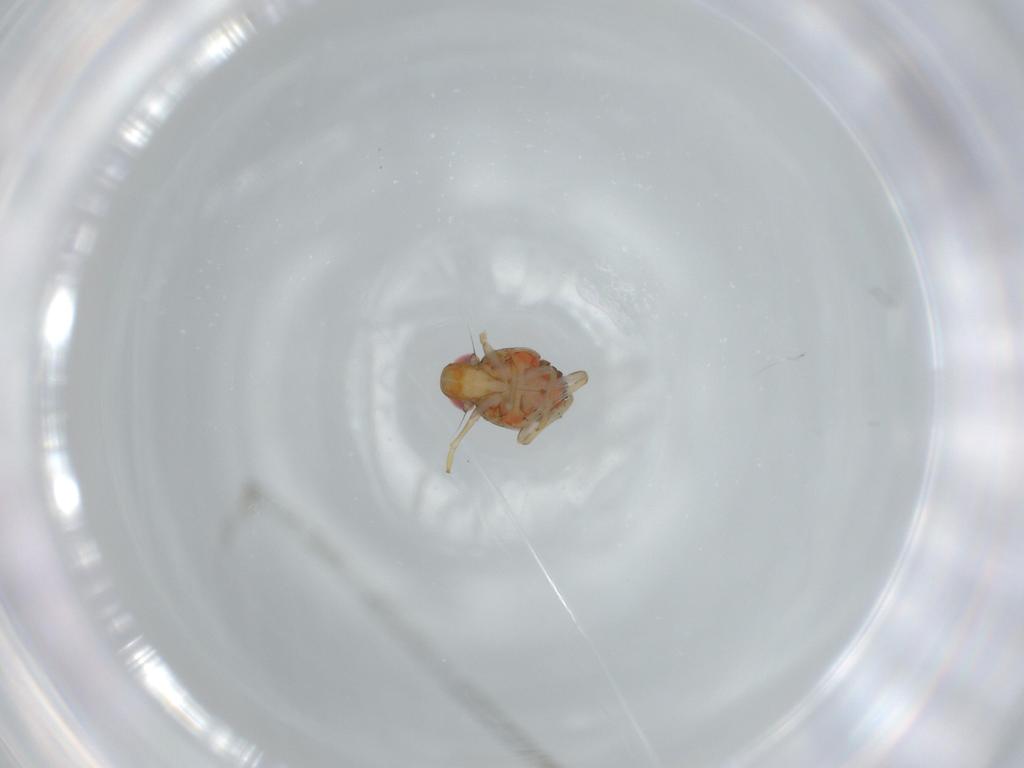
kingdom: Animalia
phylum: Arthropoda
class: Insecta
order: Hemiptera
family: Issidae
